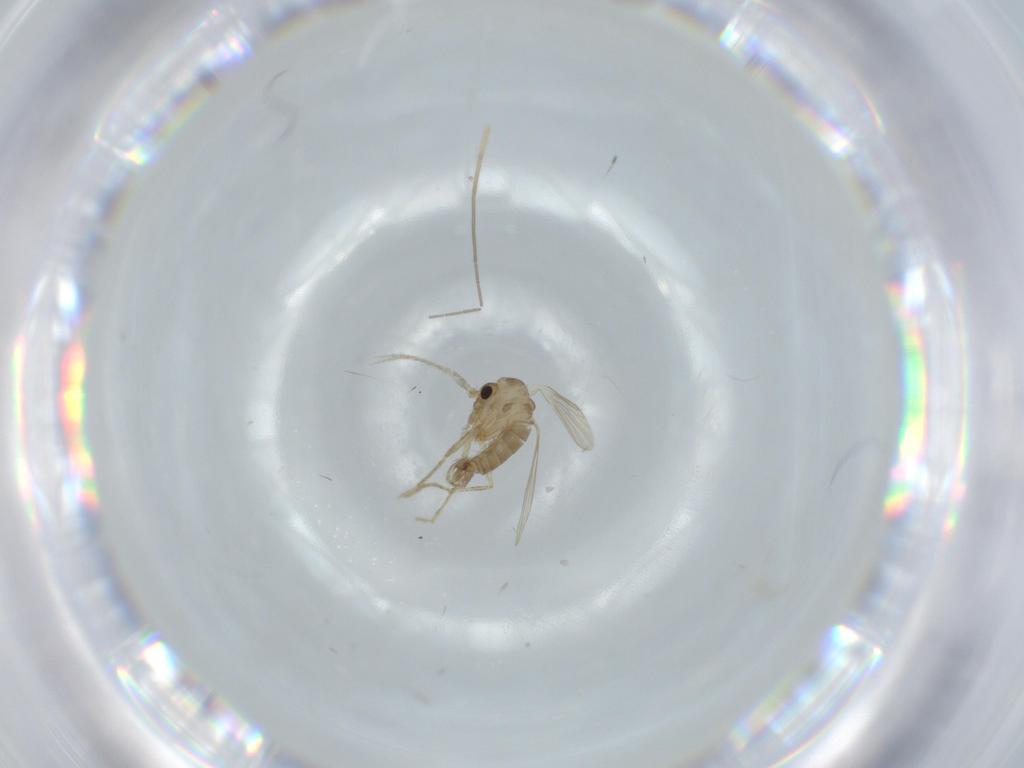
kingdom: Animalia
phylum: Arthropoda
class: Insecta
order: Diptera
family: Psychodidae
